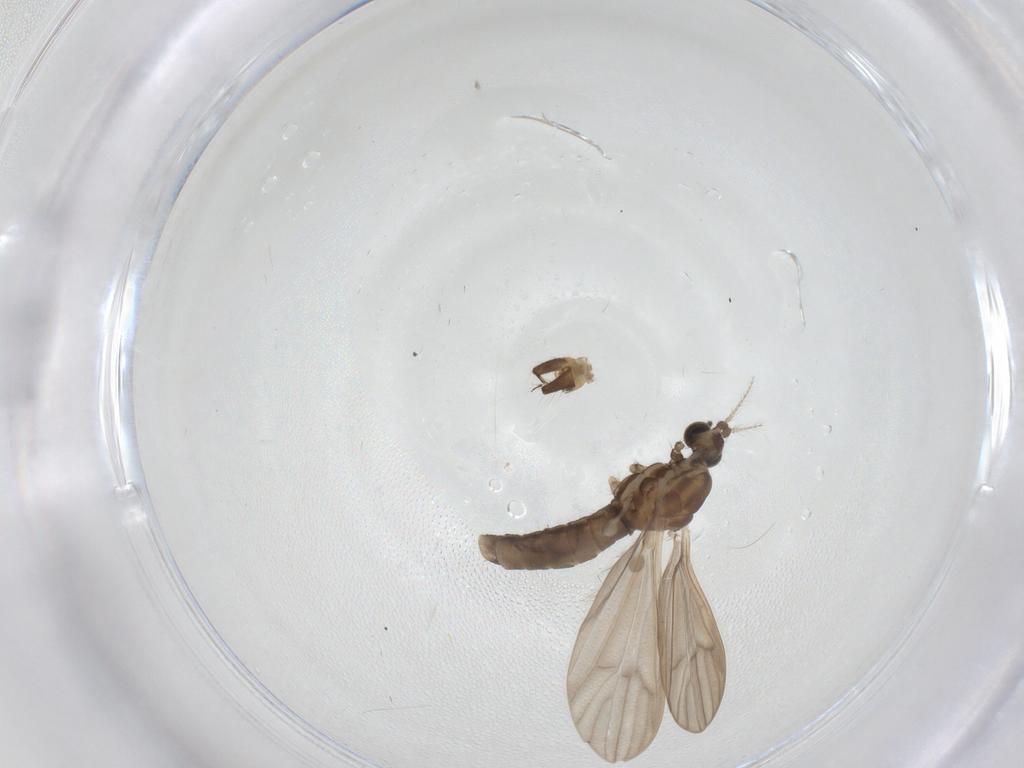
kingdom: Animalia
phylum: Arthropoda
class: Insecta
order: Diptera
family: Limoniidae
